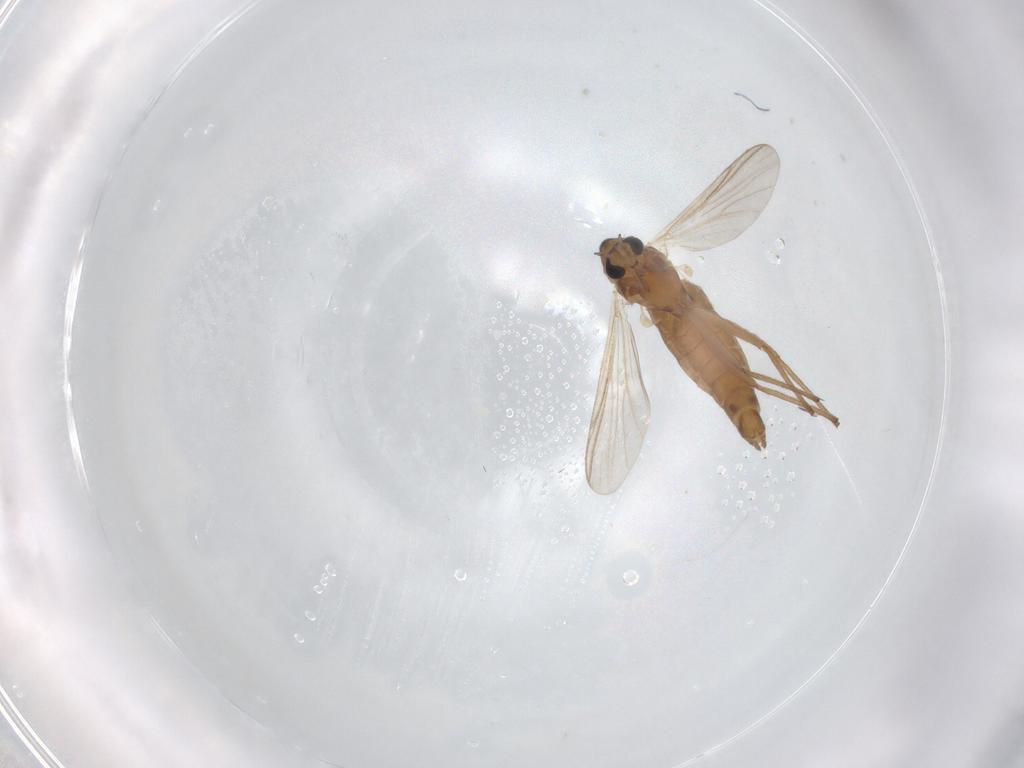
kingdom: Animalia
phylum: Arthropoda
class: Insecta
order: Diptera
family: Chironomidae
